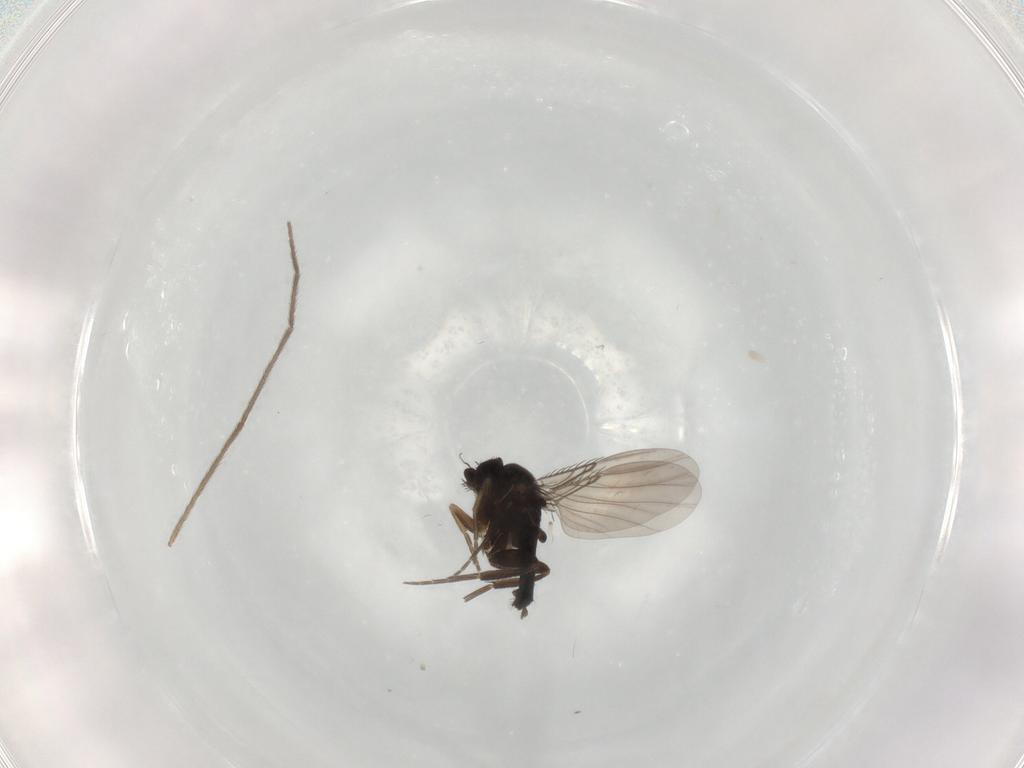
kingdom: Animalia
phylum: Arthropoda
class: Insecta
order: Diptera
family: Phoridae
